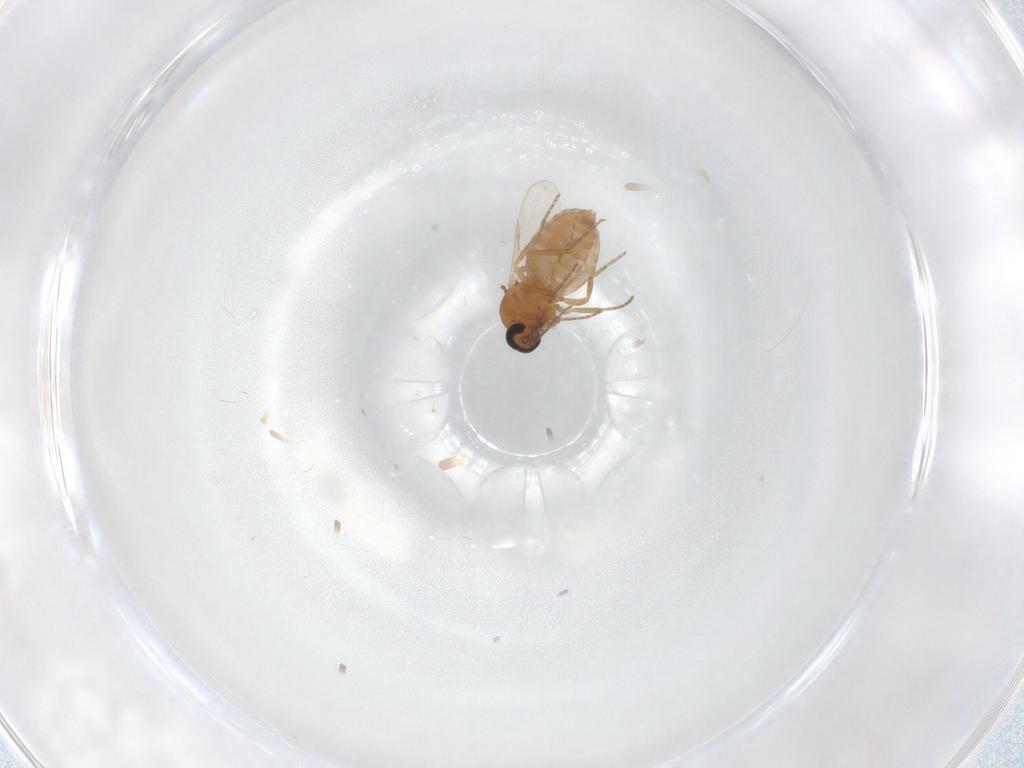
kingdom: Animalia
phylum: Arthropoda
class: Insecta
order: Diptera
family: Ceratopogonidae
